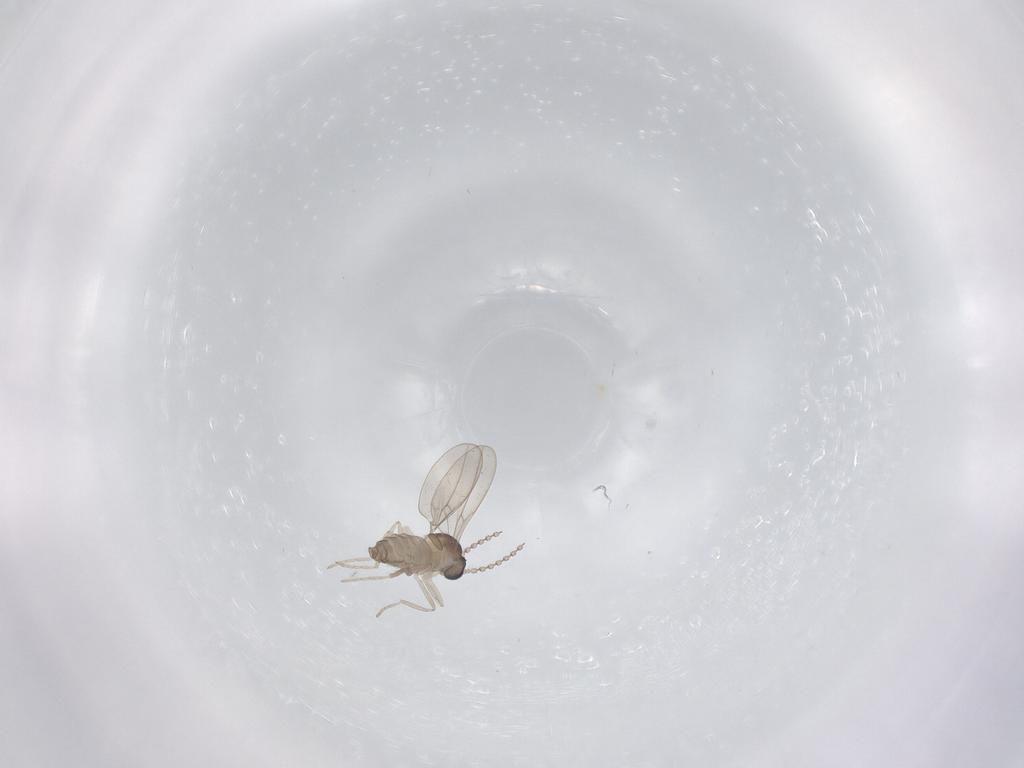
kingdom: Animalia
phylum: Arthropoda
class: Insecta
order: Diptera
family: Cecidomyiidae
